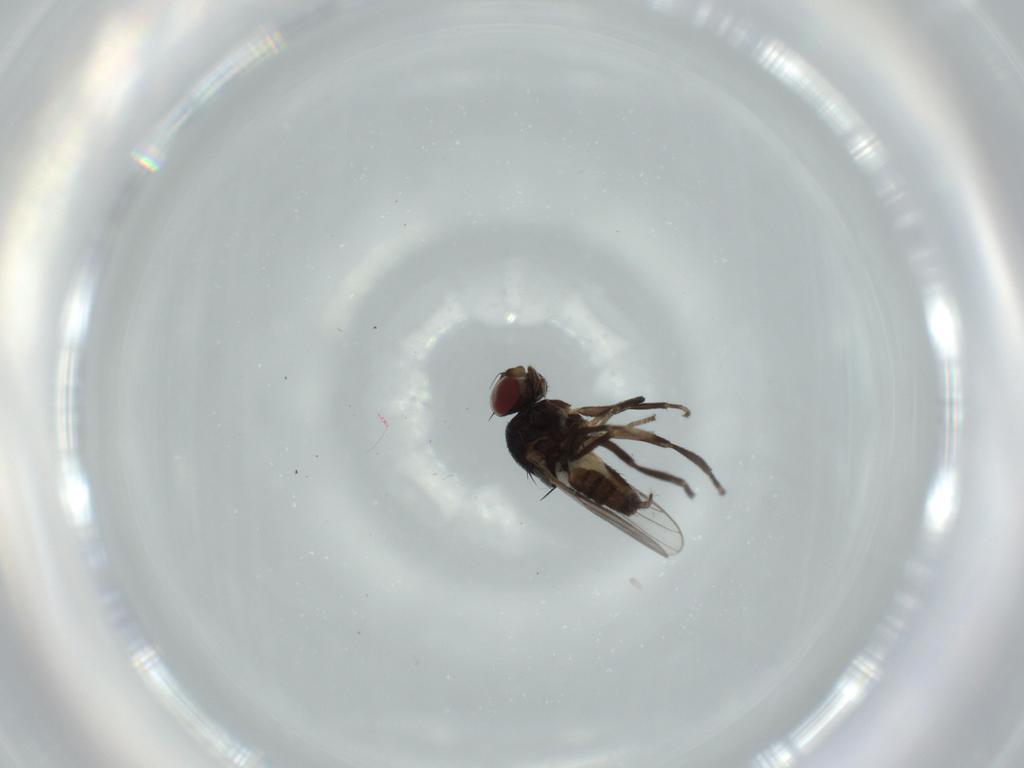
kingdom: Animalia
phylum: Arthropoda
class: Insecta
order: Diptera
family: Chloropidae
